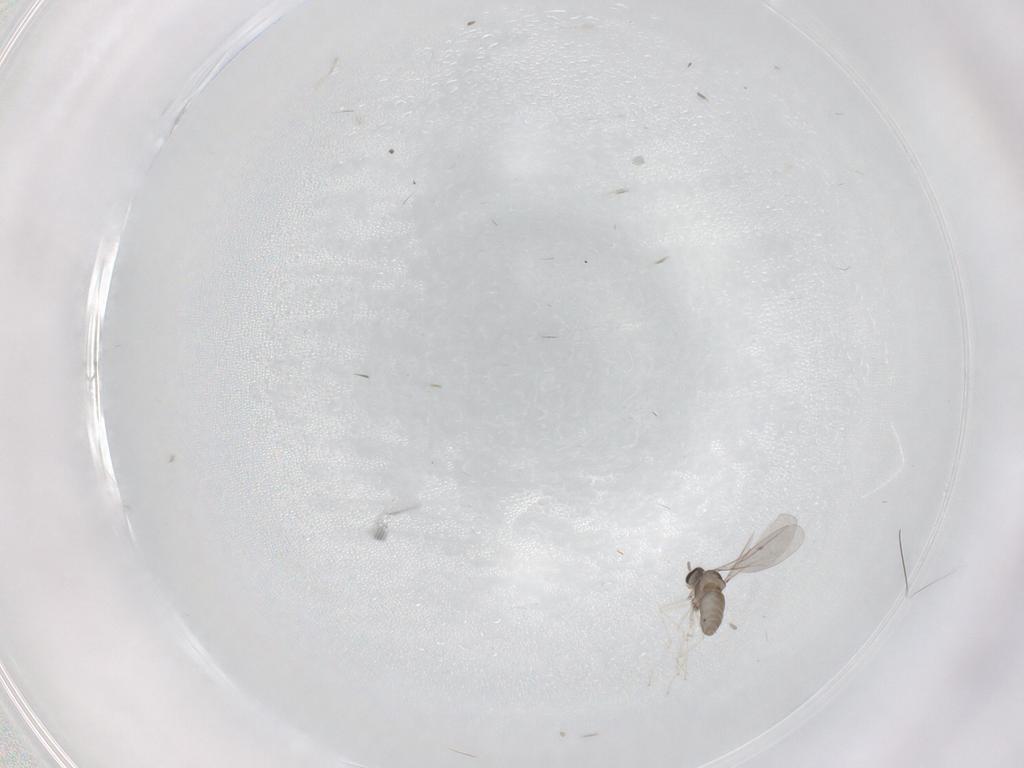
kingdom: Animalia
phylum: Arthropoda
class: Insecta
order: Diptera
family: Cecidomyiidae
